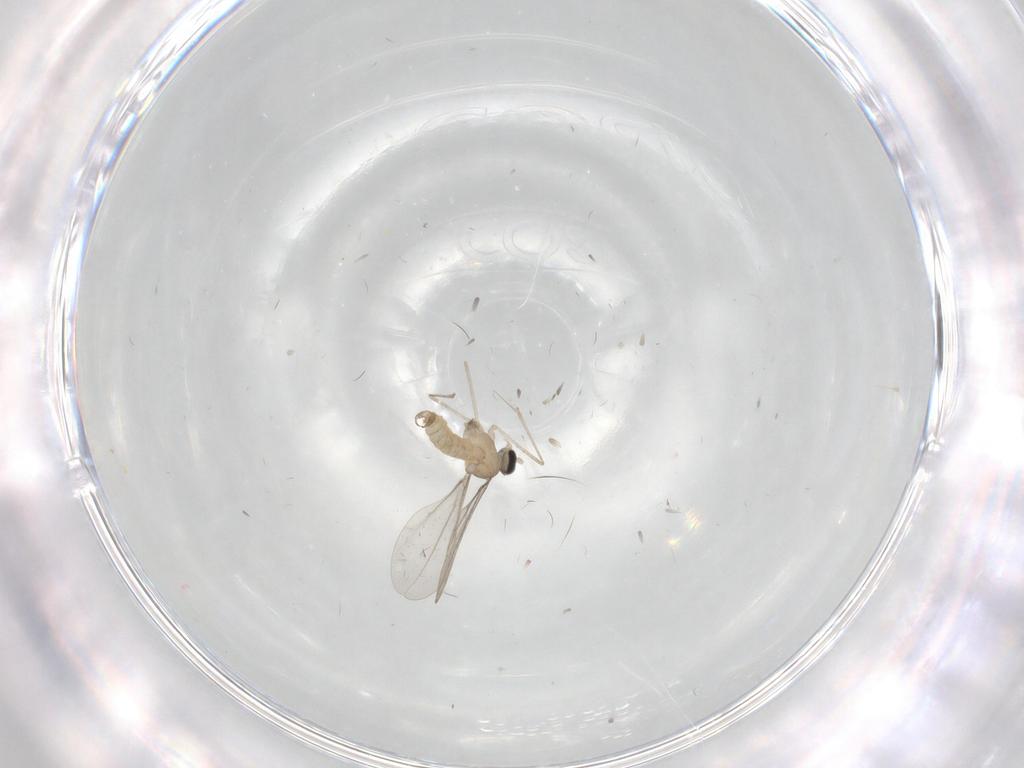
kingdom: Animalia
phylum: Arthropoda
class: Insecta
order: Diptera
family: Cecidomyiidae
